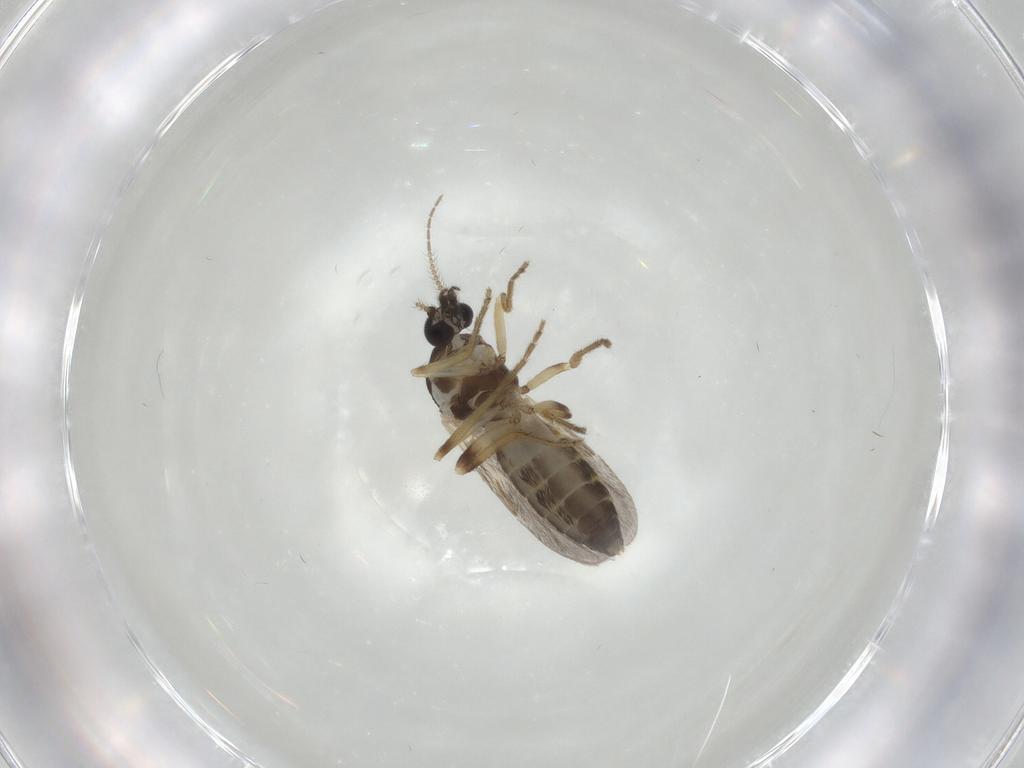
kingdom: Animalia
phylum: Arthropoda
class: Insecta
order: Diptera
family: Ceratopogonidae
